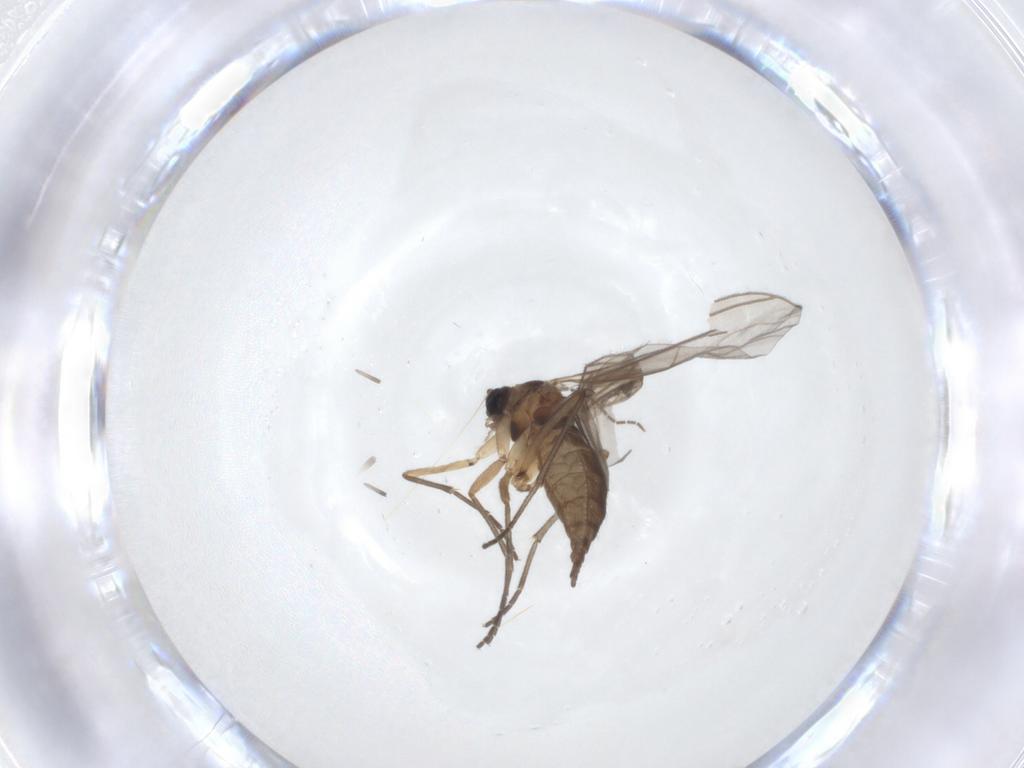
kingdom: Animalia
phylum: Arthropoda
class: Insecta
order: Diptera
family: Sciaridae
